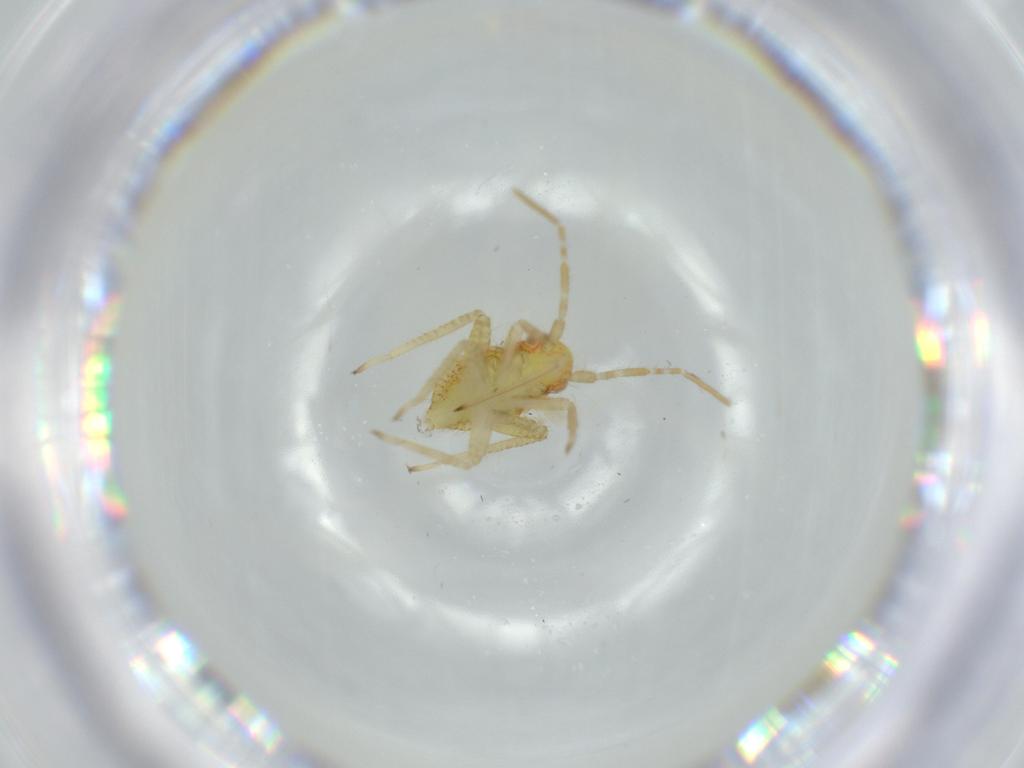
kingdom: Animalia
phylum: Arthropoda
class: Insecta
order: Hemiptera
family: Miridae
